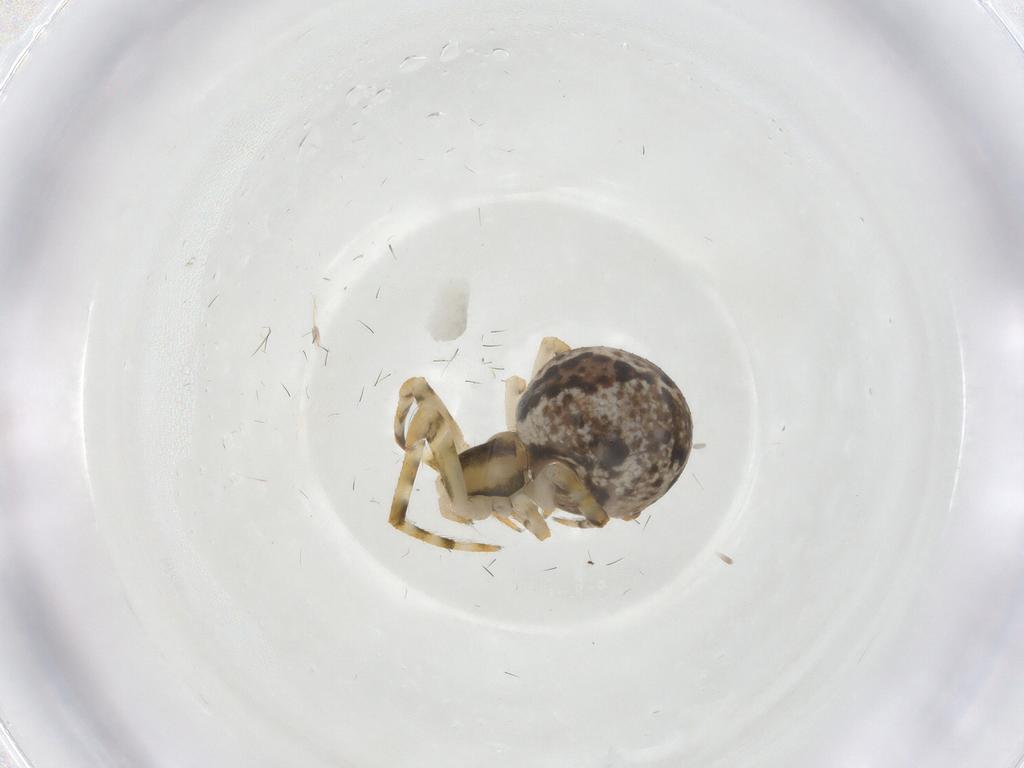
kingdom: Animalia
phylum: Arthropoda
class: Arachnida
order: Araneae
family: Theridiidae
